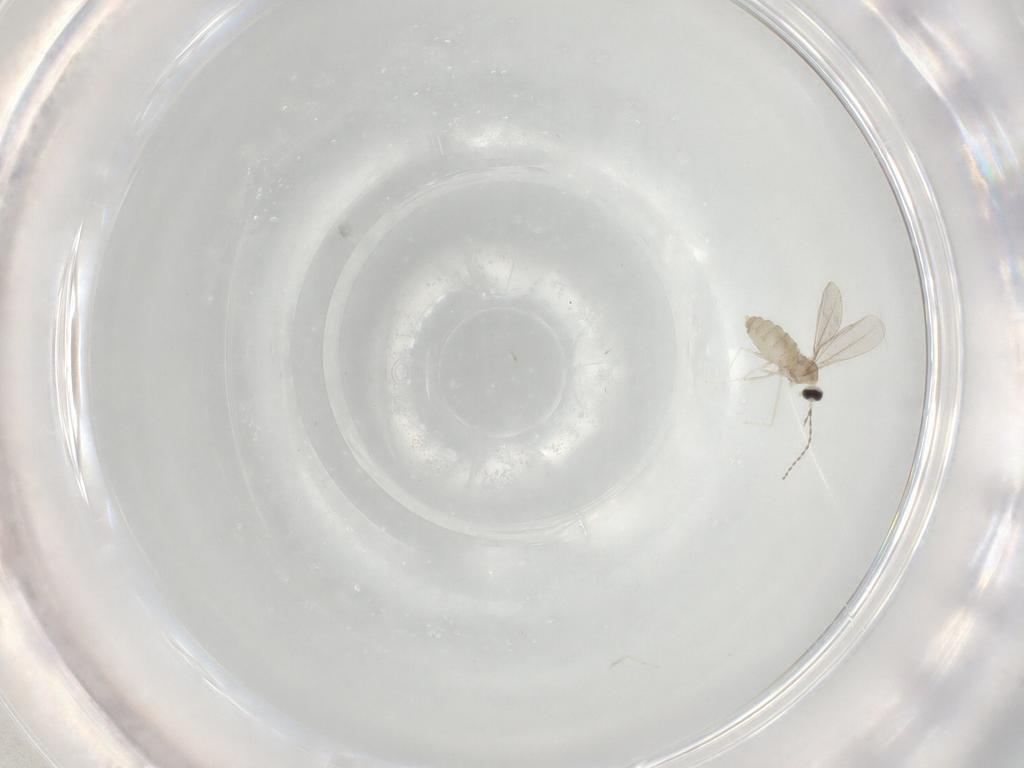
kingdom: Animalia
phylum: Arthropoda
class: Insecta
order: Diptera
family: Cecidomyiidae
